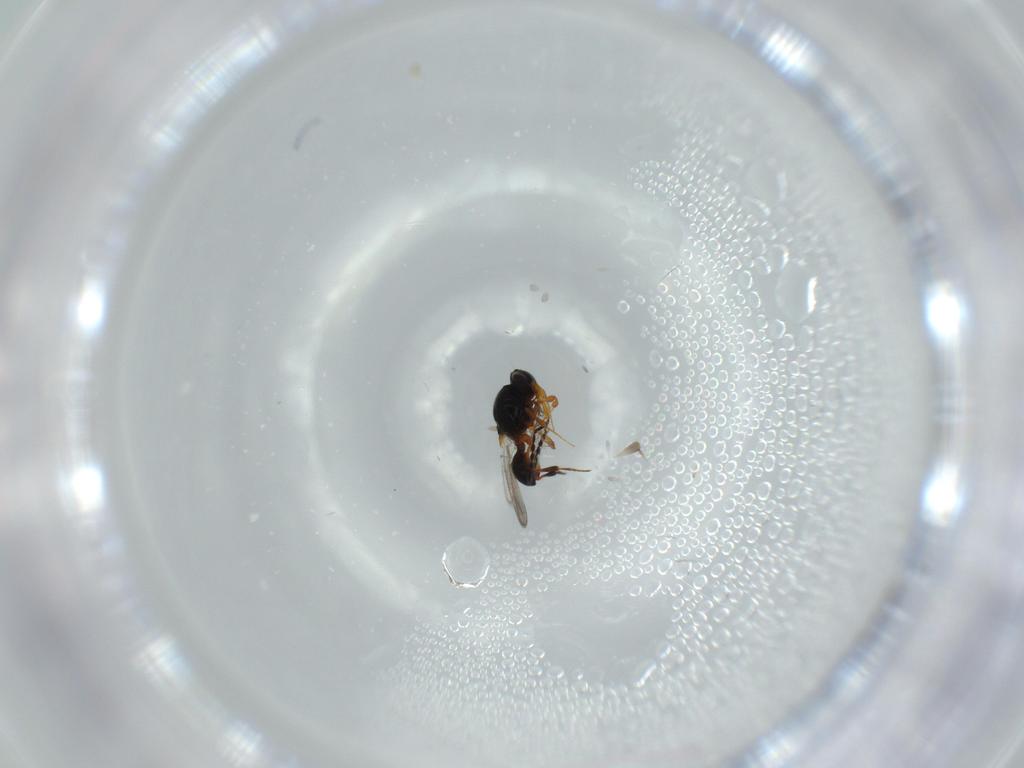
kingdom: Animalia
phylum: Arthropoda
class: Insecta
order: Hymenoptera
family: Platygastridae
